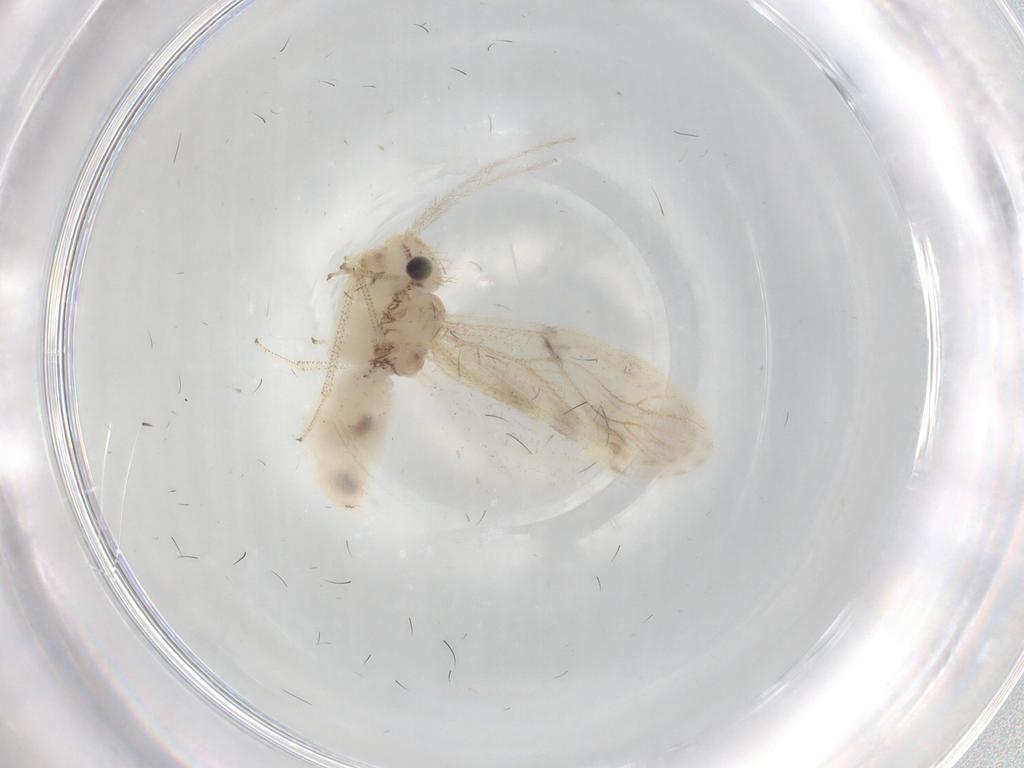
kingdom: Animalia
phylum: Arthropoda
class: Insecta
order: Psocodea
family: Pseudocaeciliidae
